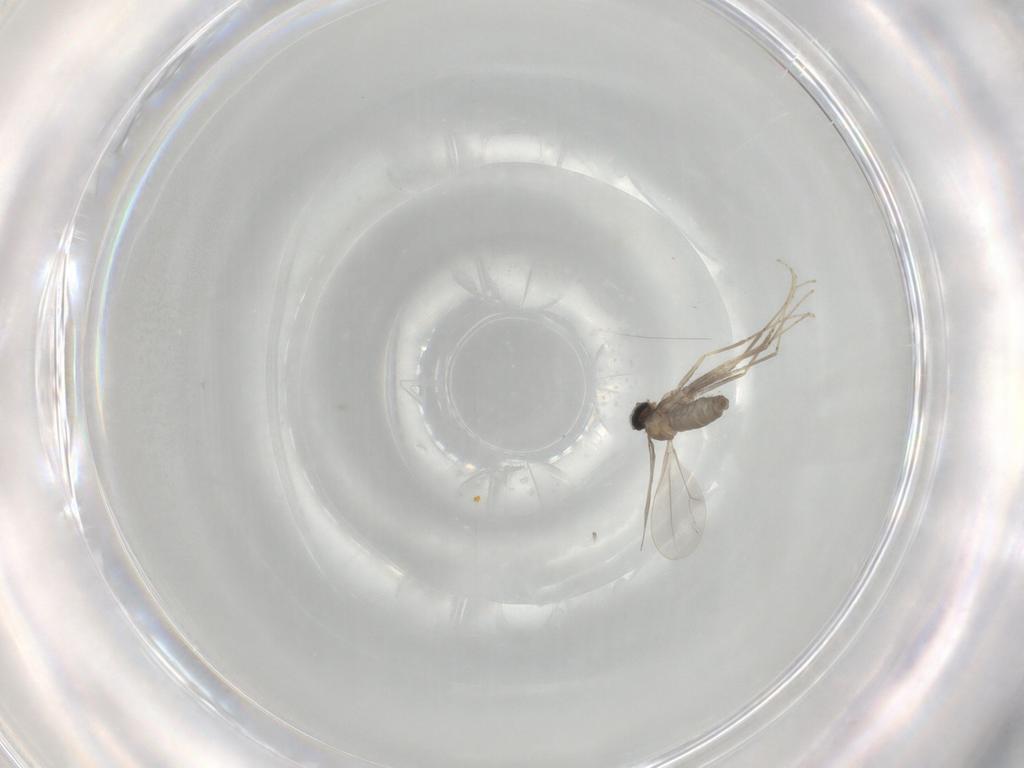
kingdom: Animalia
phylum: Arthropoda
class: Insecta
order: Diptera
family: Cecidomyiidae
